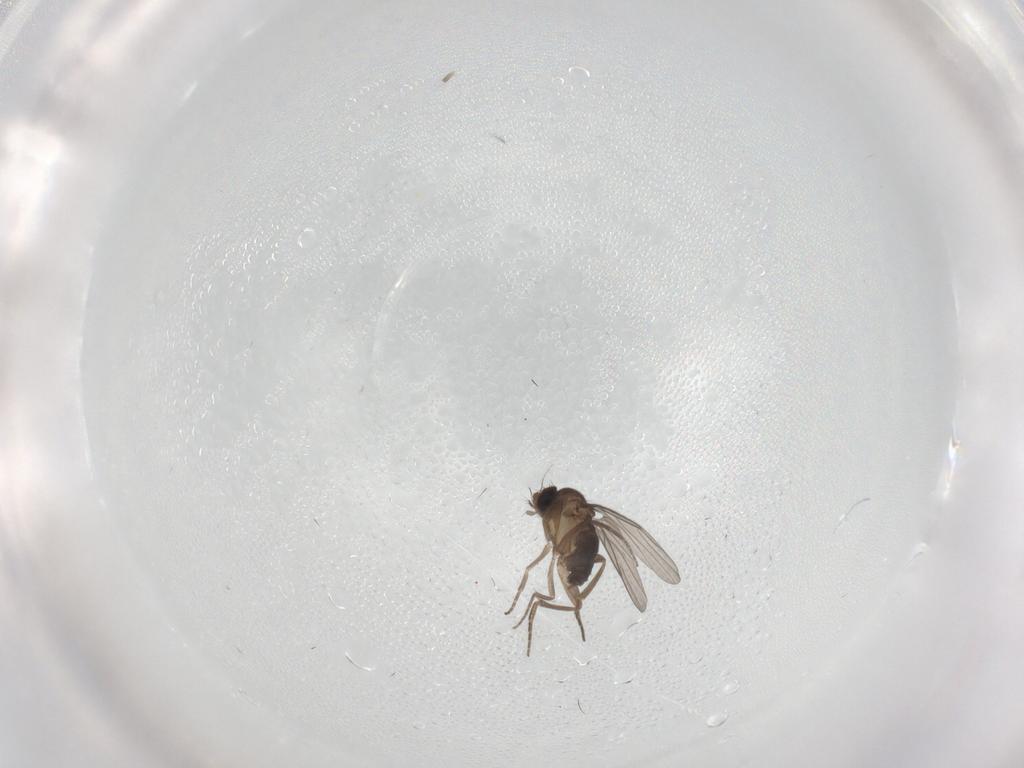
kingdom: Animalia
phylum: Arthropoda
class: Insecta
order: Diptera
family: Phoridae
